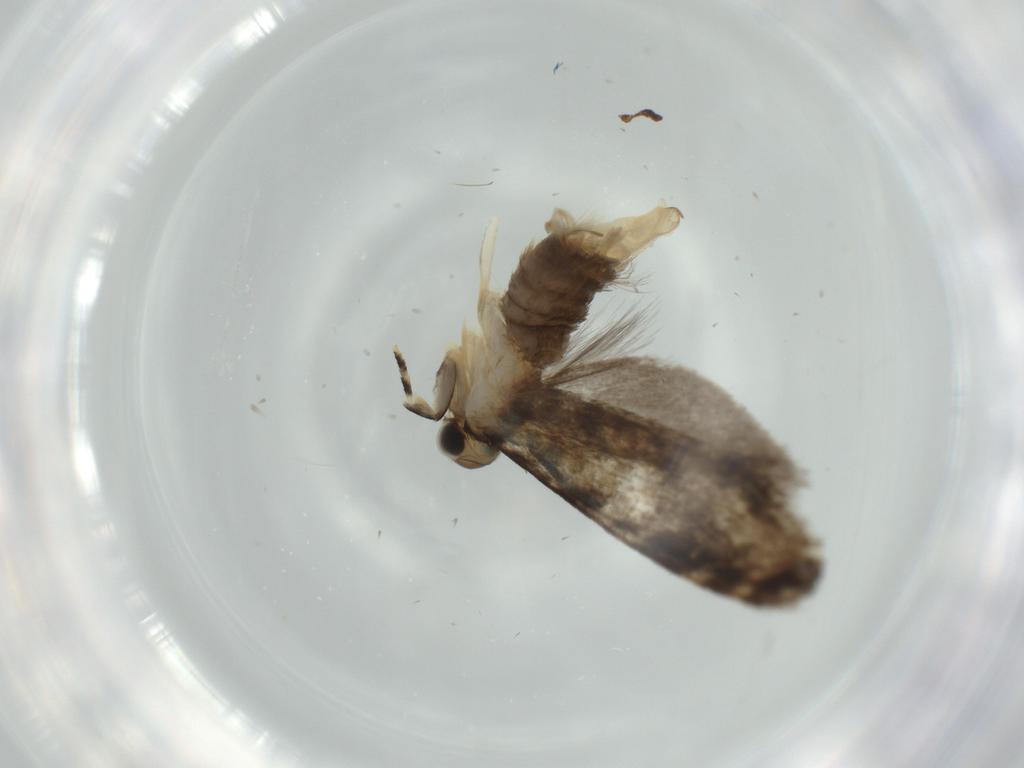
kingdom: Animalia
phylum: Arthropoda
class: Insecta
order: Lepidoptera
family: Tineidae
